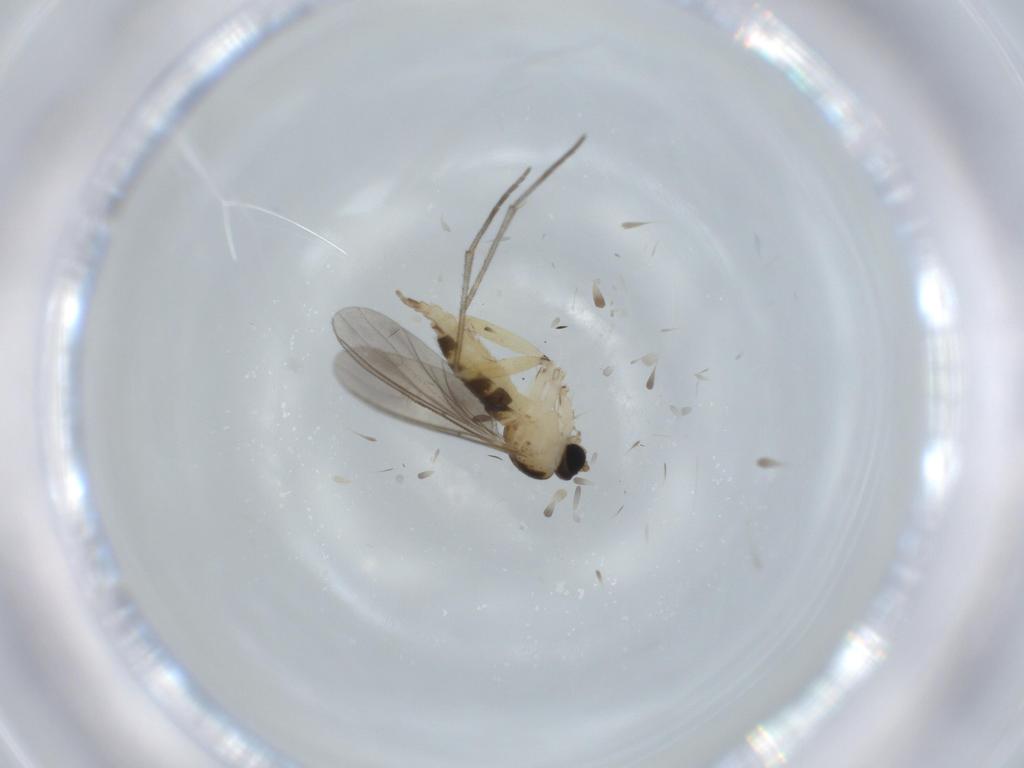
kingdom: Animalia
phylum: Arthropoda
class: Insecta
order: Diptera
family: Sciaridae
